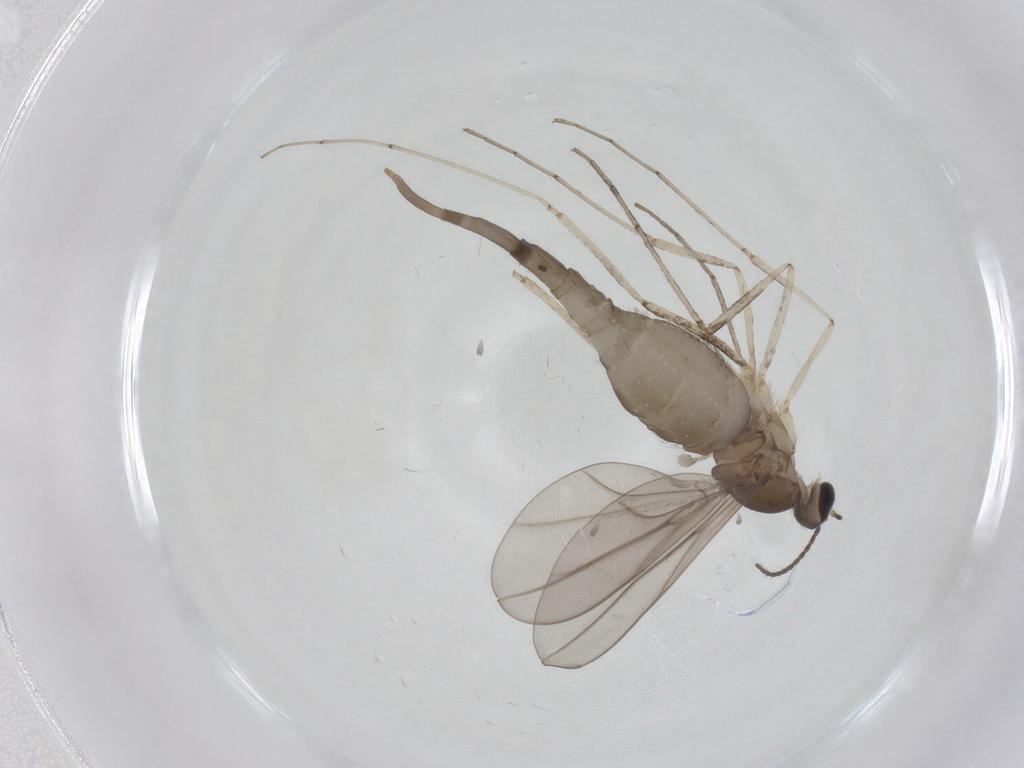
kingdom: Animalia
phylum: Arthropoda
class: Insecta
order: Diptera
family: Cecidomyiidae
